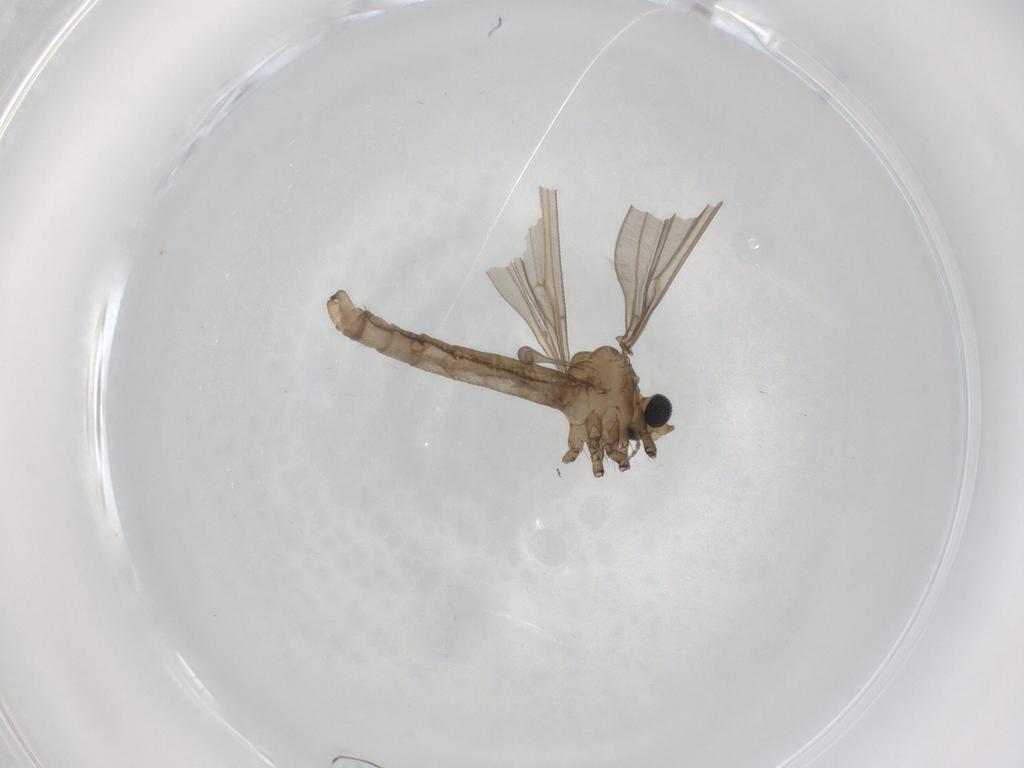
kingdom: Animalia
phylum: Arthropoda
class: Insecta
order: Diptera
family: Limoniidae
